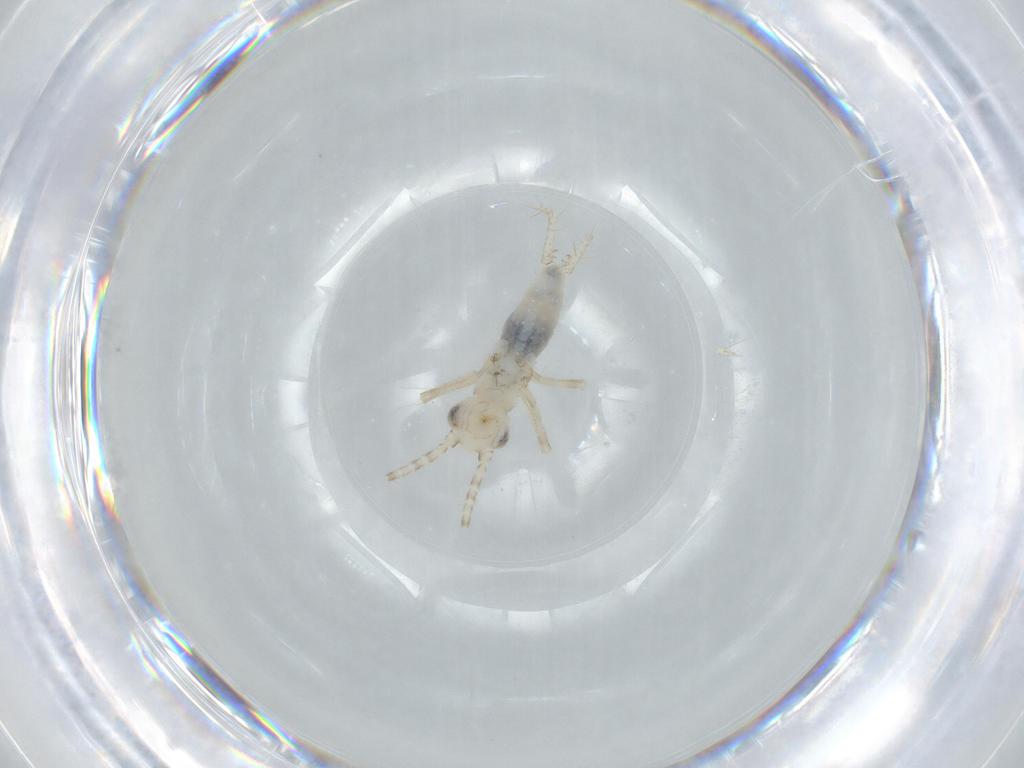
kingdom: Animalia
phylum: Arthropoda
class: Insecta
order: Orthoptera
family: Trigonidiidae
